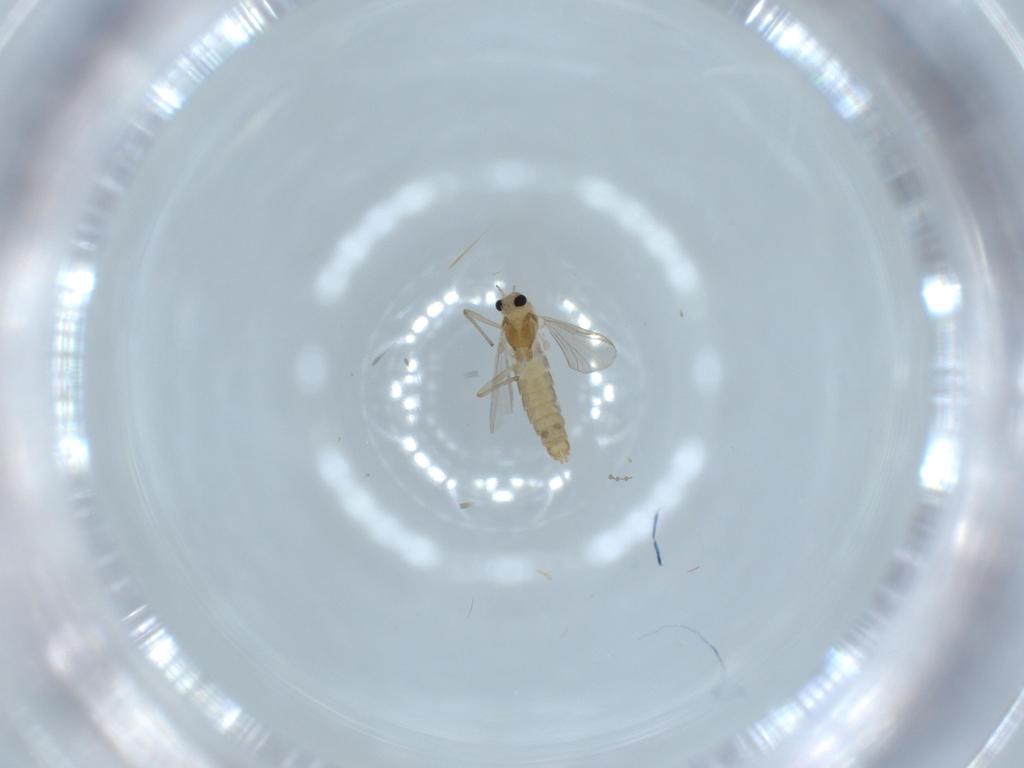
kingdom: Animalia
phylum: Arthropoda
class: Insecta
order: Diptera
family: Chironomidae
